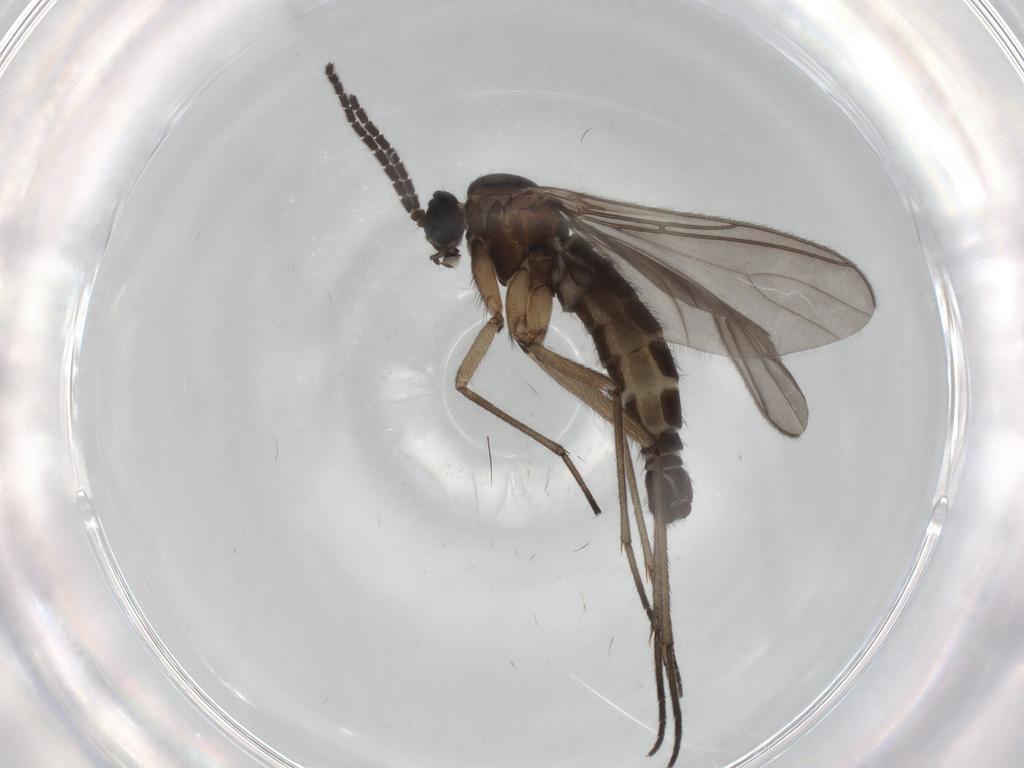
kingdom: Animalia
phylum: Arthropoda
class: Insecta
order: Diptera
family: Sciaridae
